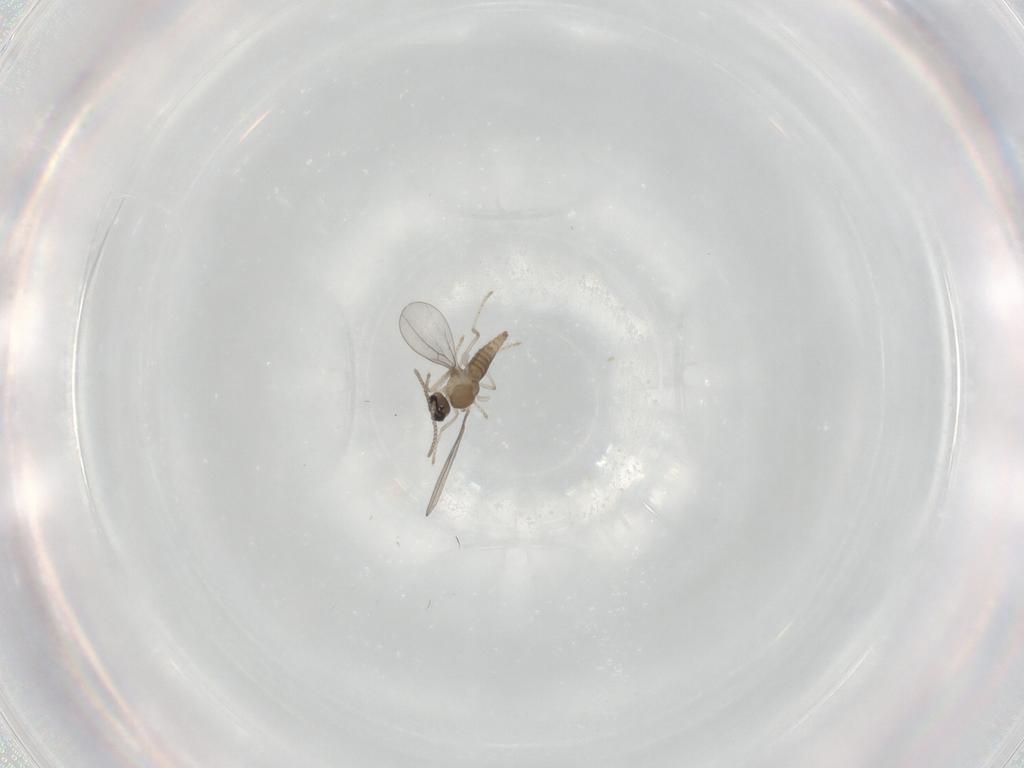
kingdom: Animalia
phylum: Arthropoda
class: Insecta
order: Diptera
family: Cecidomyiidae
